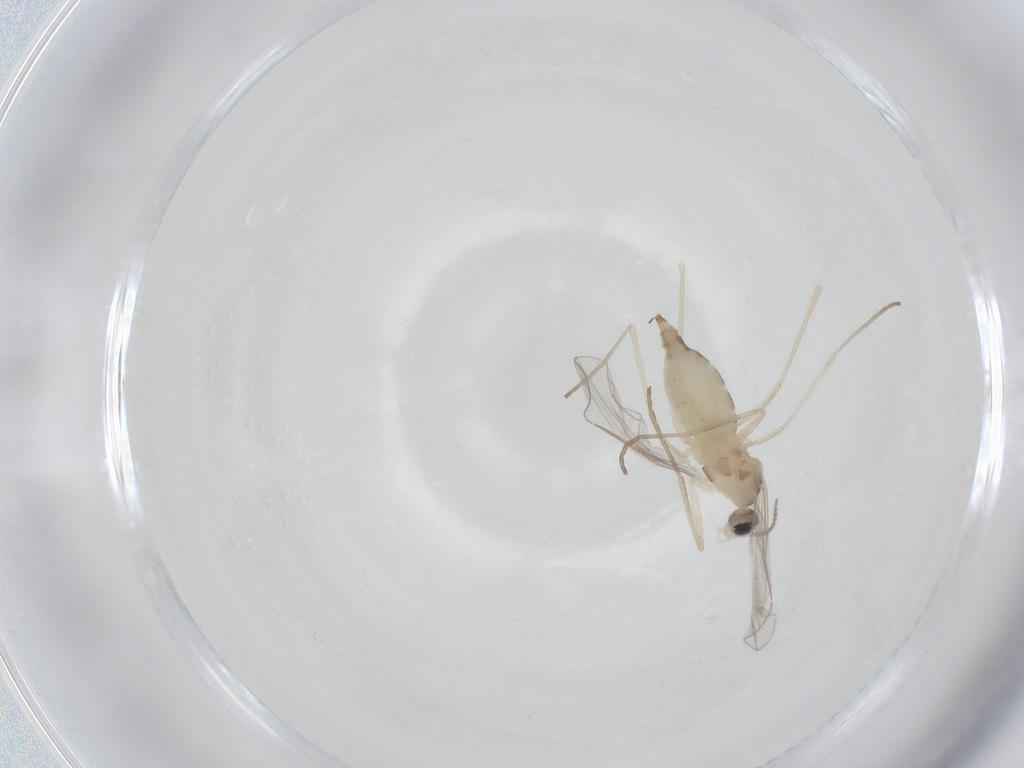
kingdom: Animalia
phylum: Arthropoda
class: Insecta
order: Diptera
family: Cecidomyiidae
